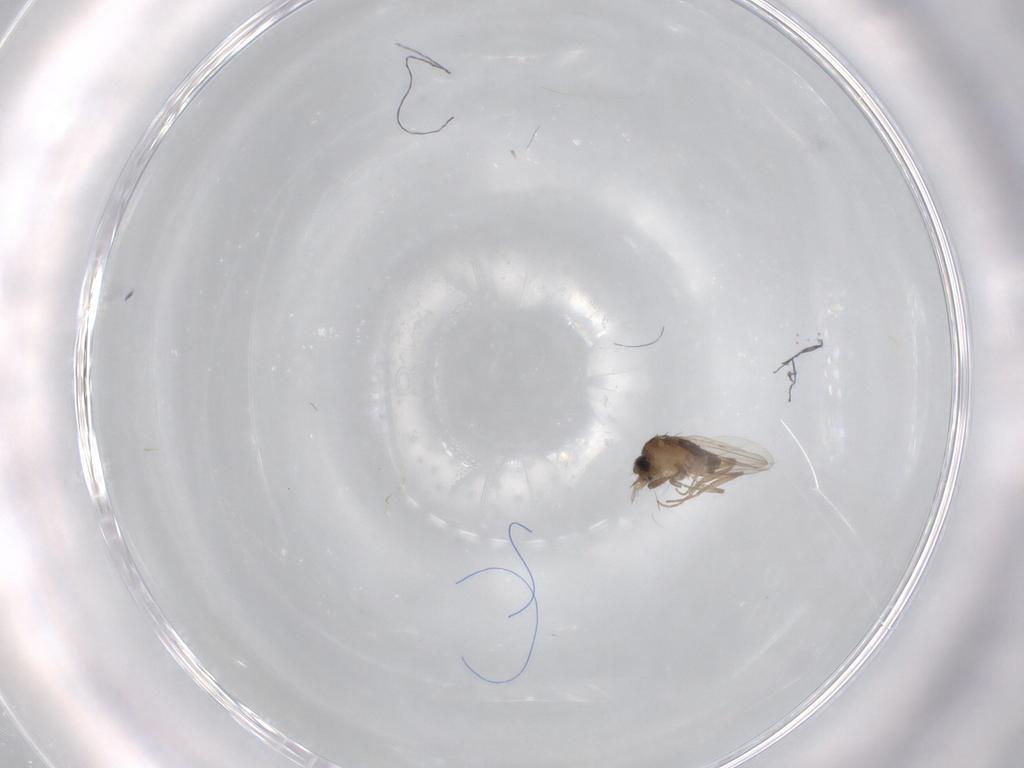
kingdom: Animalia
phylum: Arthropoda
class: Insecta
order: Diptera
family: Phoridae
